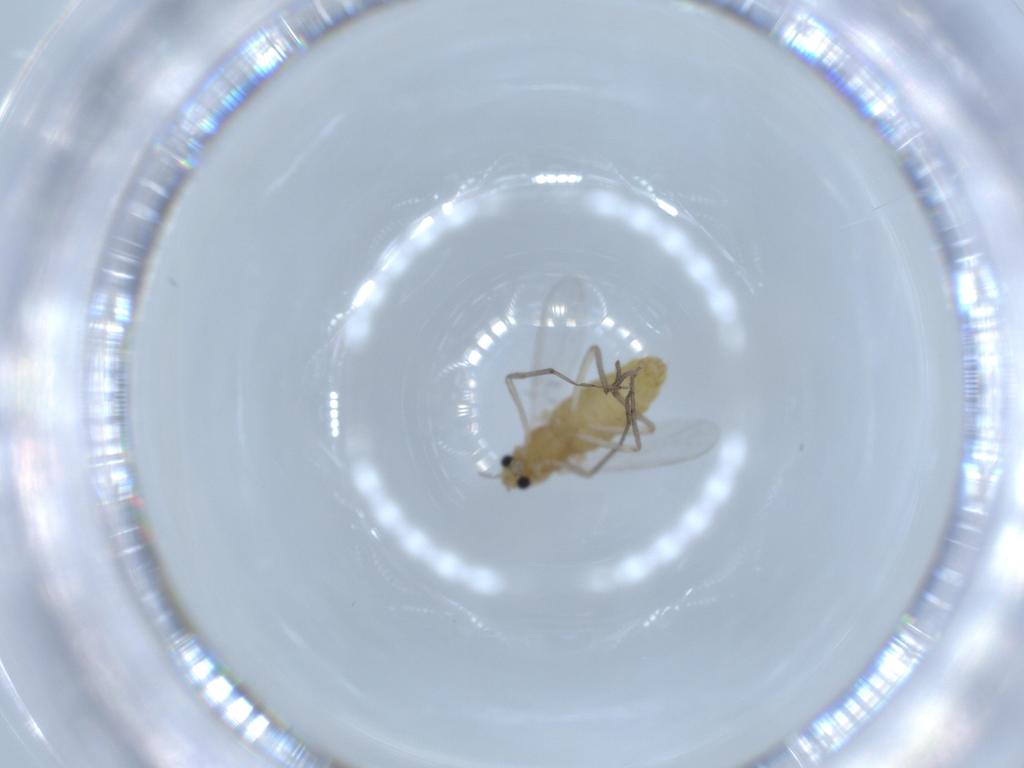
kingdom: Animalia
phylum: Arthropoda
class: Insecta
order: Diptera
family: Chironomidae
